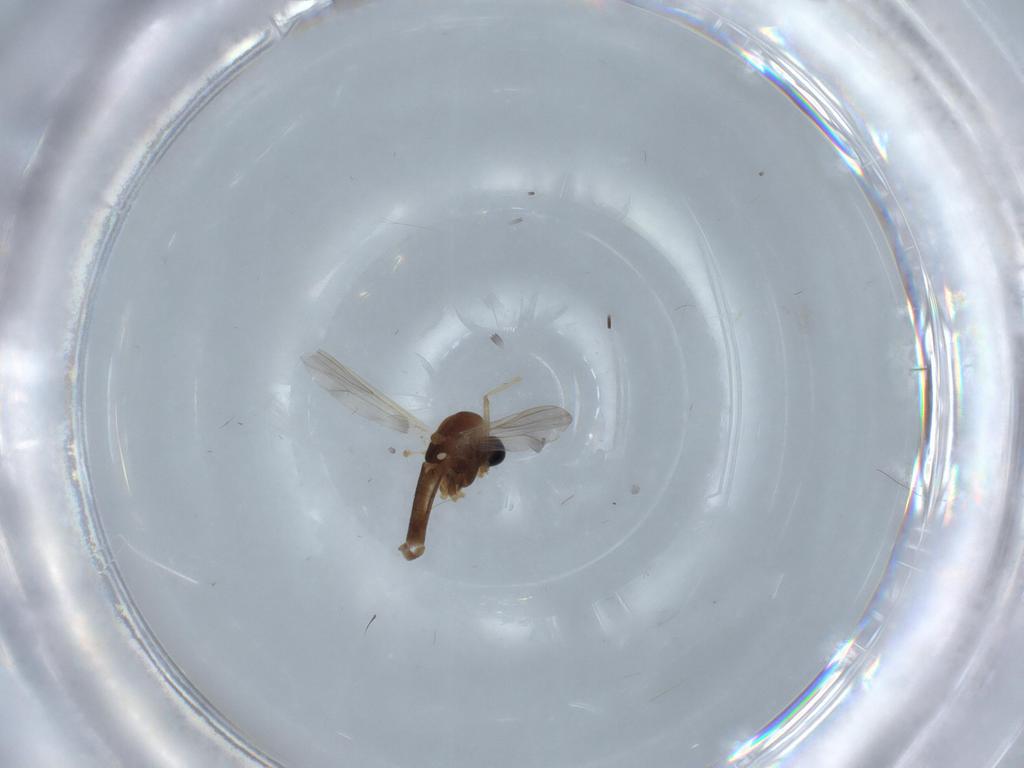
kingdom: Animalia
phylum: Arthropoda
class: Insecta
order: Diptera
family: Chironomidae
